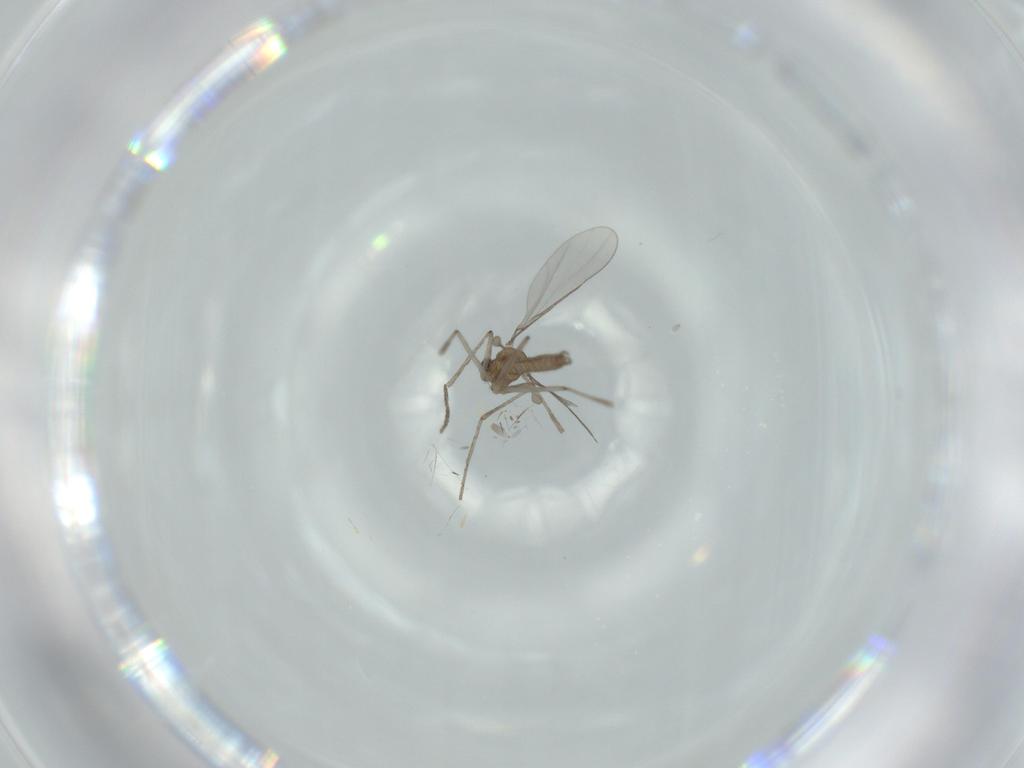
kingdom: Animalia
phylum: Arthropoda
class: Insecta
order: Diptera
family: Cecidomyiidae
